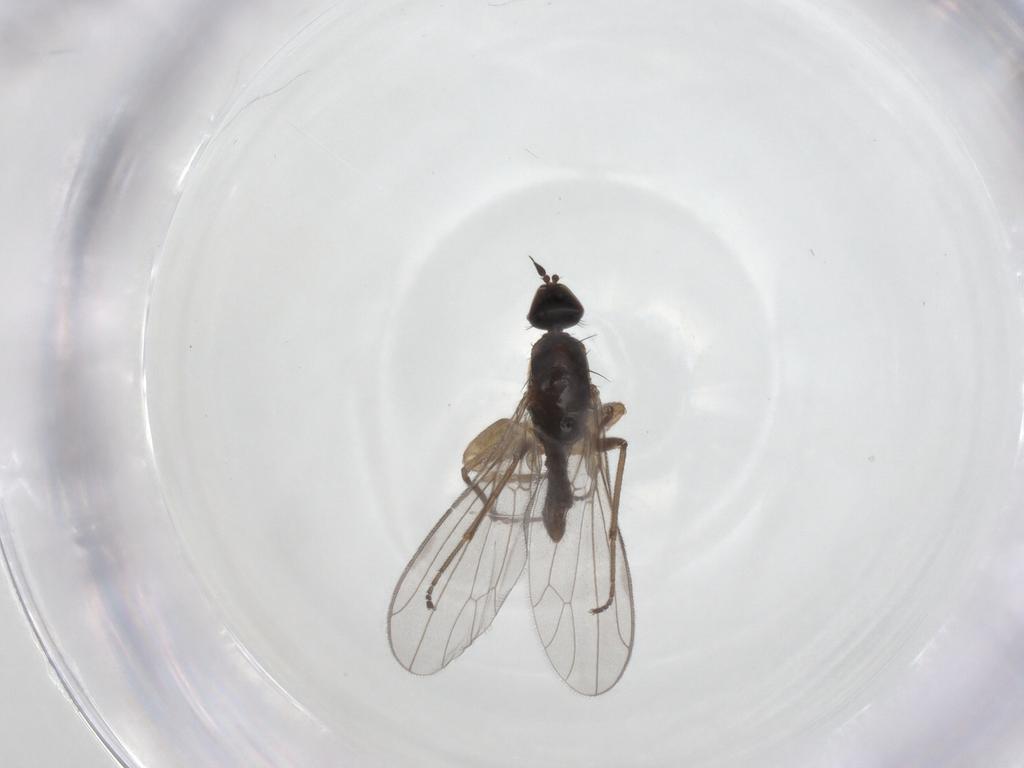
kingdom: Animalia
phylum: Arthropoda
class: Insecta
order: Diptera
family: Empididae
